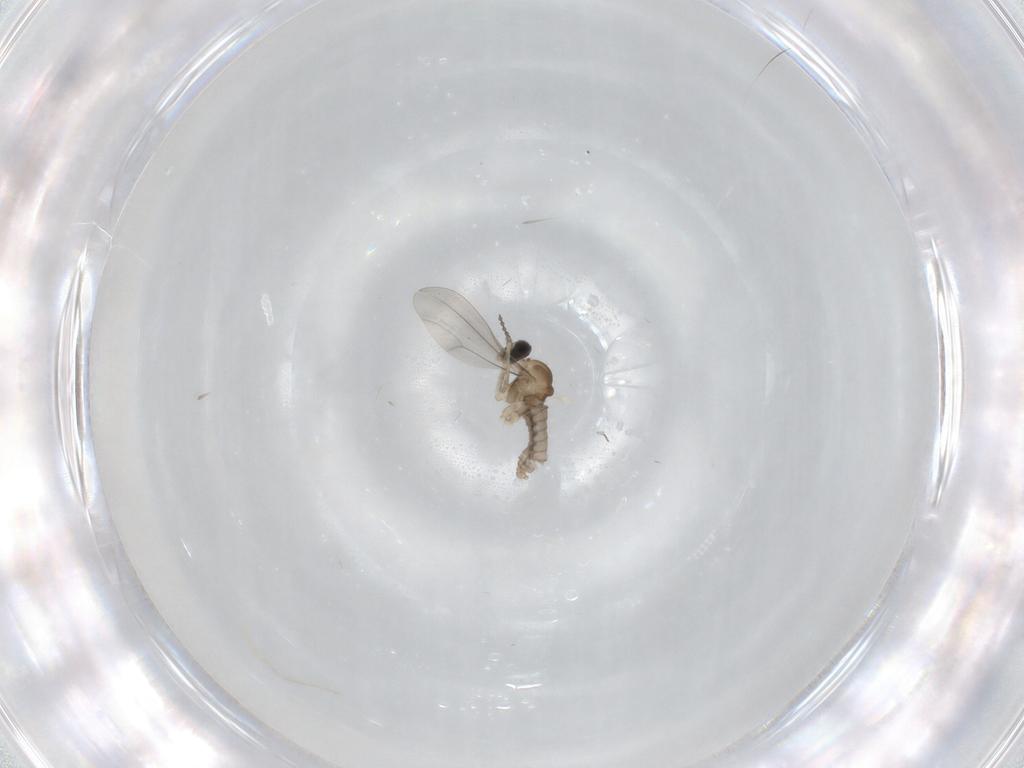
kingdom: Animalia
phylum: Arthropoda
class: Insecta
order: Diptera
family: Cecidomyiidae
